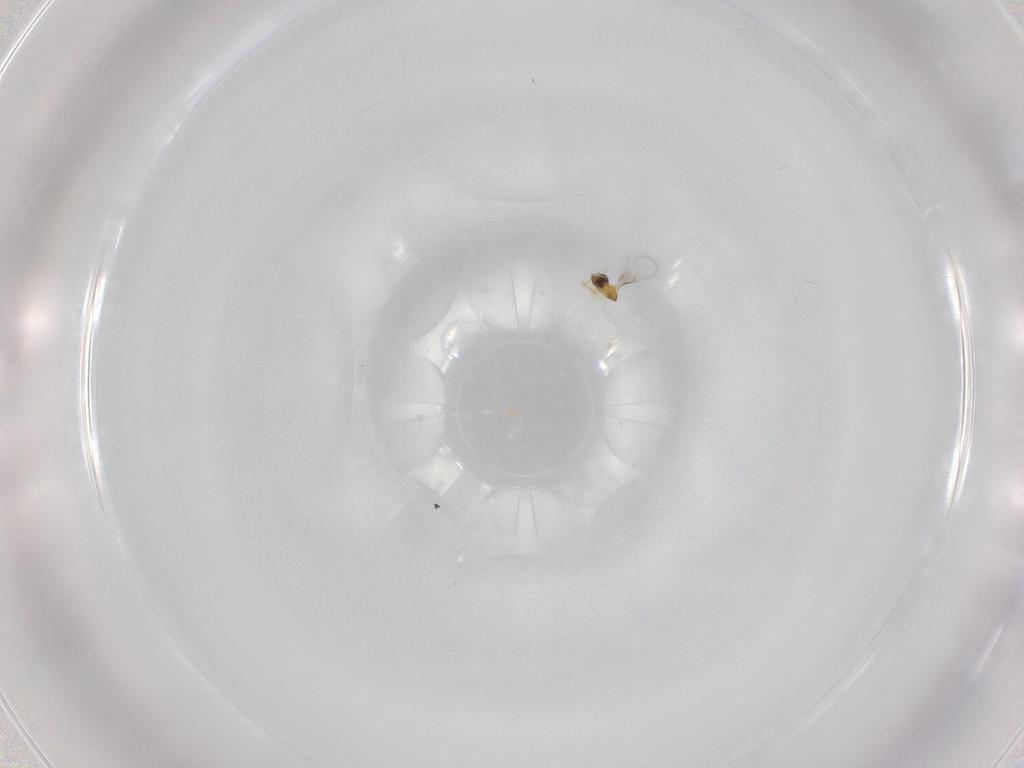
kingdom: Animalia
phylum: Arthropoda
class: Insecta
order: Hymenoptera
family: Trichogrammatidae
